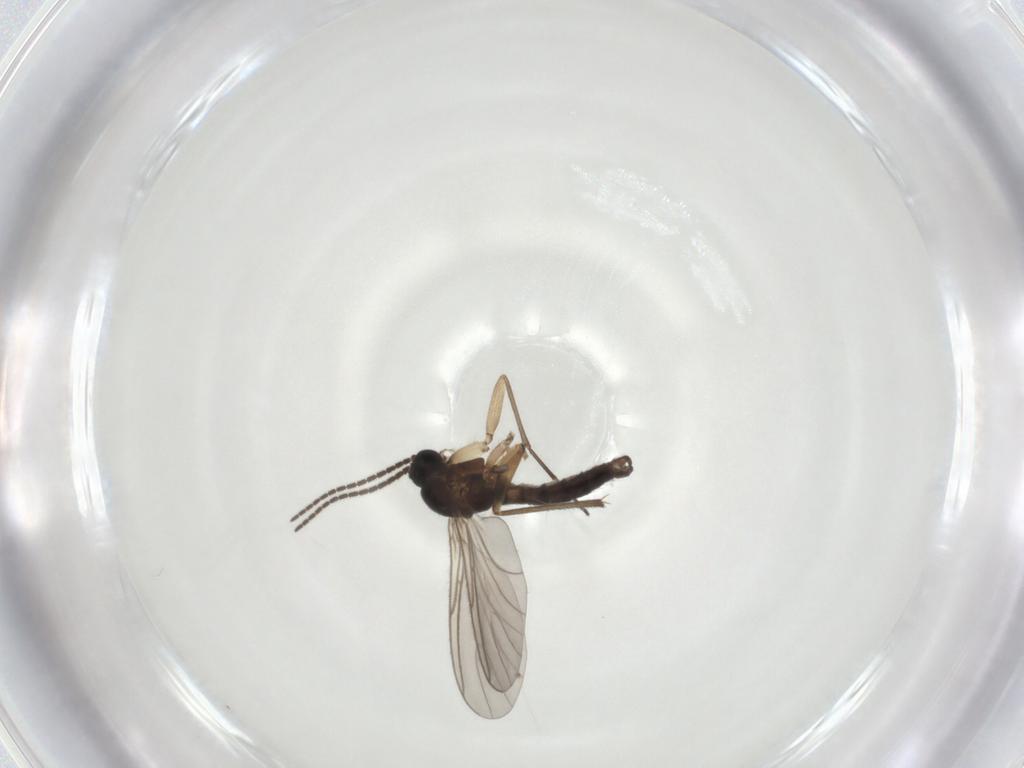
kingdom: Animalia
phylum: Arthropoda
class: Insecta
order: Diptera
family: Sciaridae
